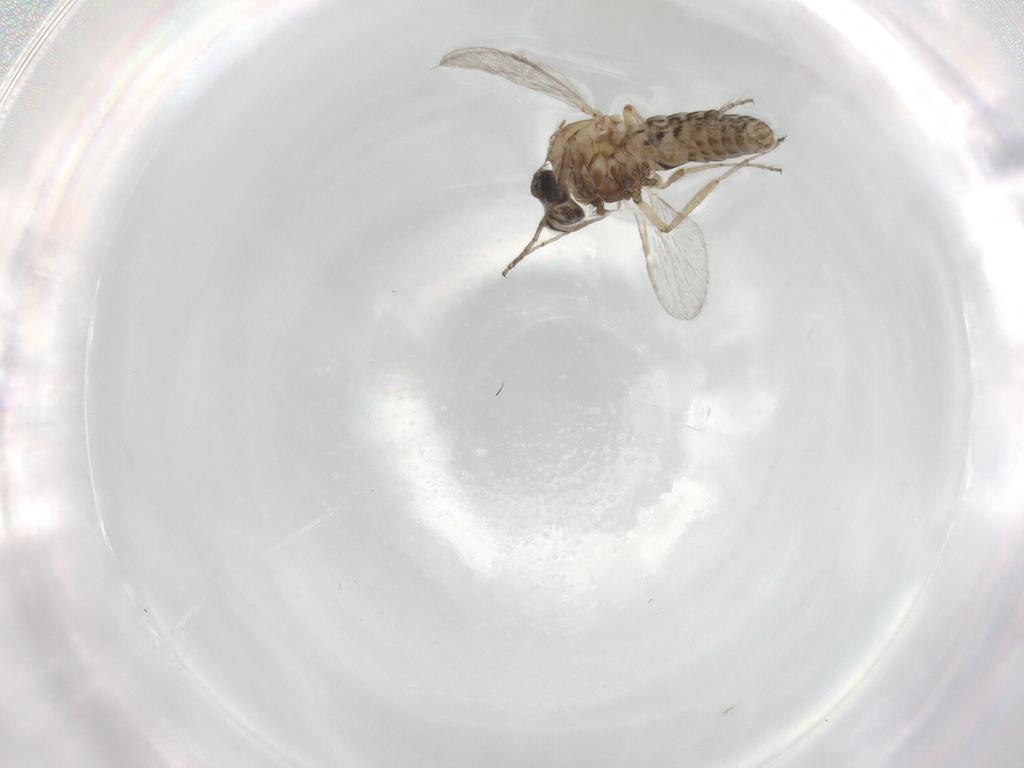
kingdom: Animalia
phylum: Arthropoda
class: Insecta
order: Diptera
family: Ceratopogonidae
